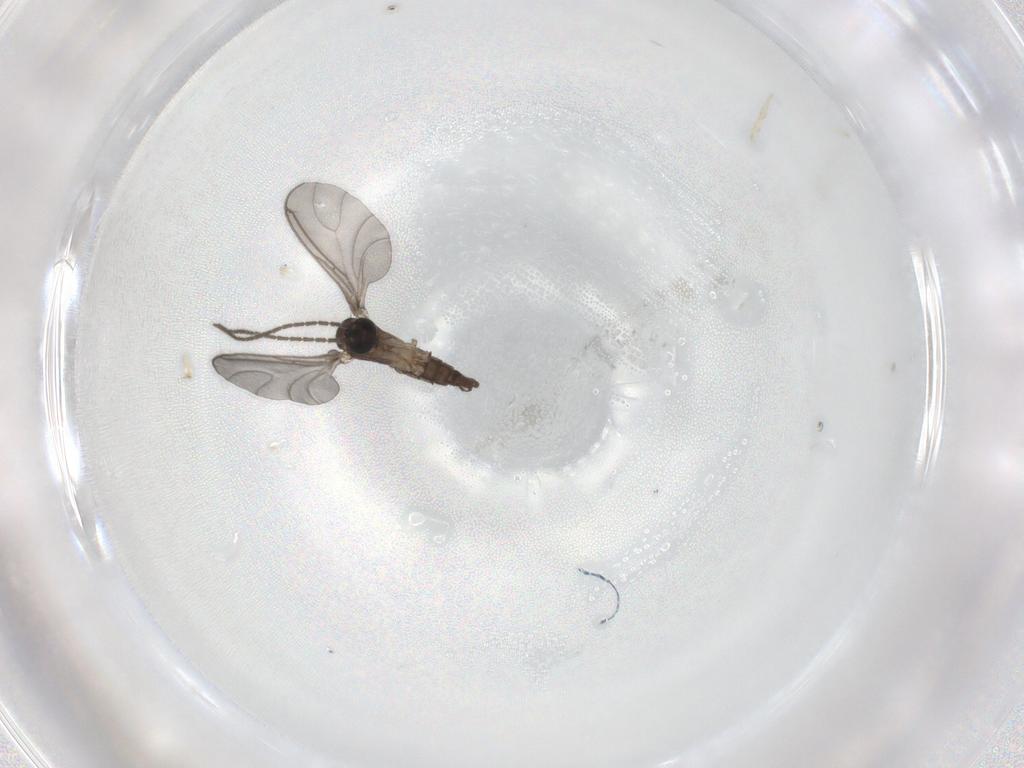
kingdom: Animalia
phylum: Arthropoda
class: Insecta
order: Diptera
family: Sciaridae
